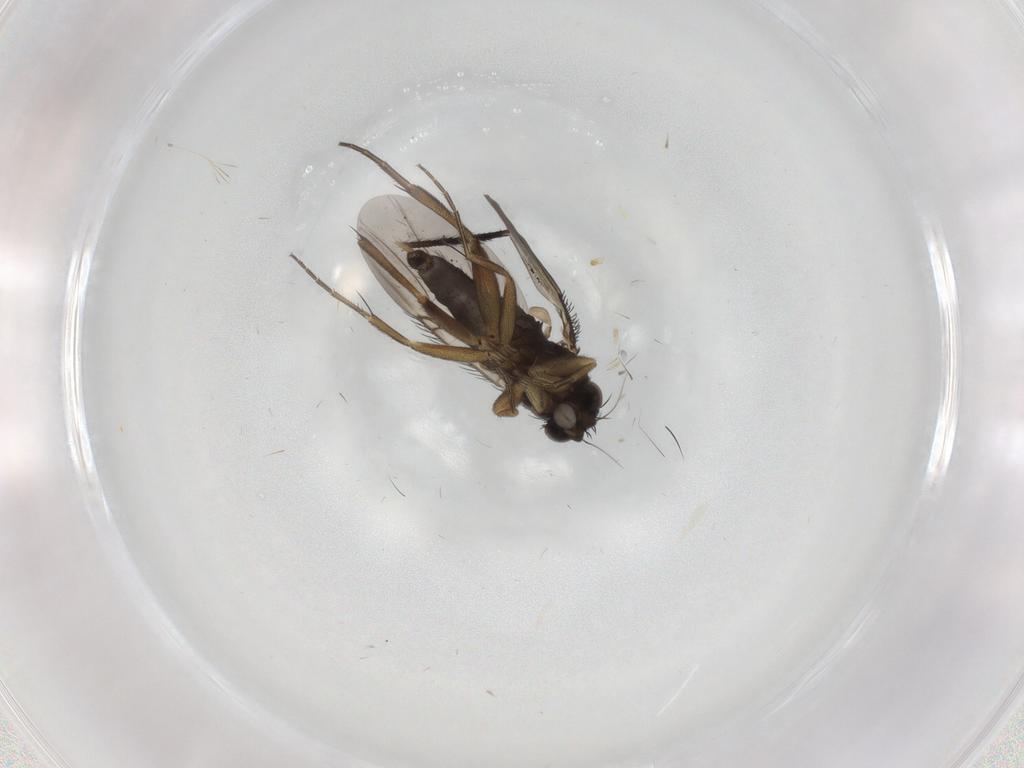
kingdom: Animalia
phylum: Arthropoda
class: Insecta
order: Diptera
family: Phoridae
